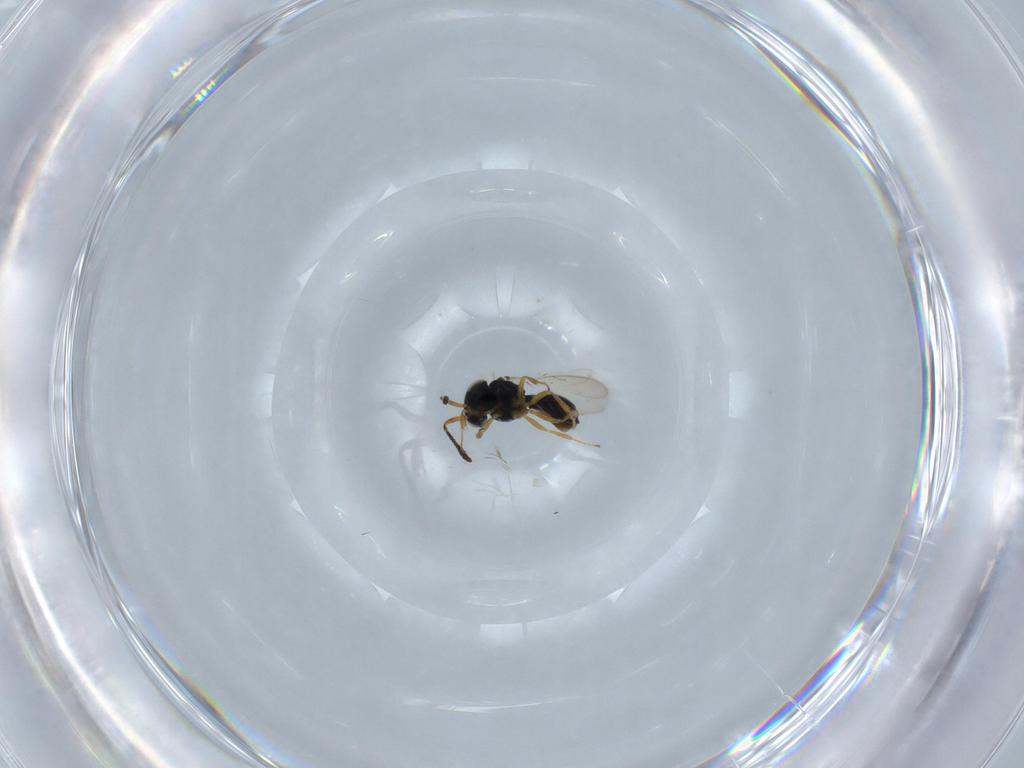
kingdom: Animalia
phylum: Arthropoda
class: Insecta
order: Hymenoptera
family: Scelionidae
